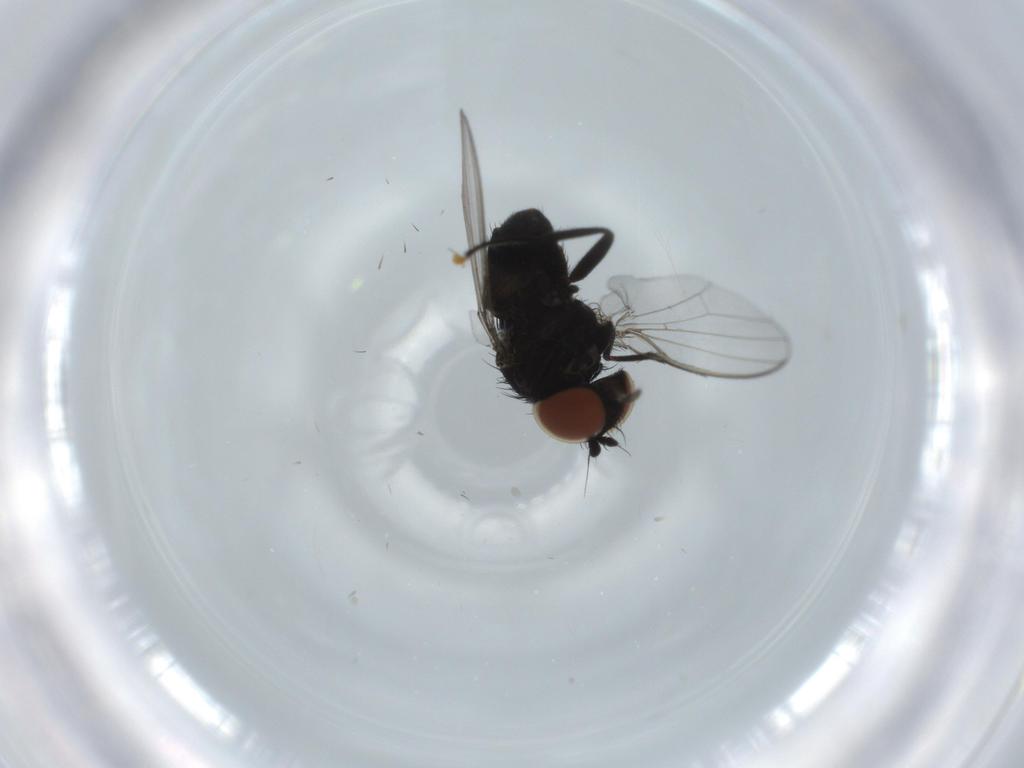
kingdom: Animalia
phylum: Arthropoda
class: Insecta
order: Diptera
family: Milichiidae
